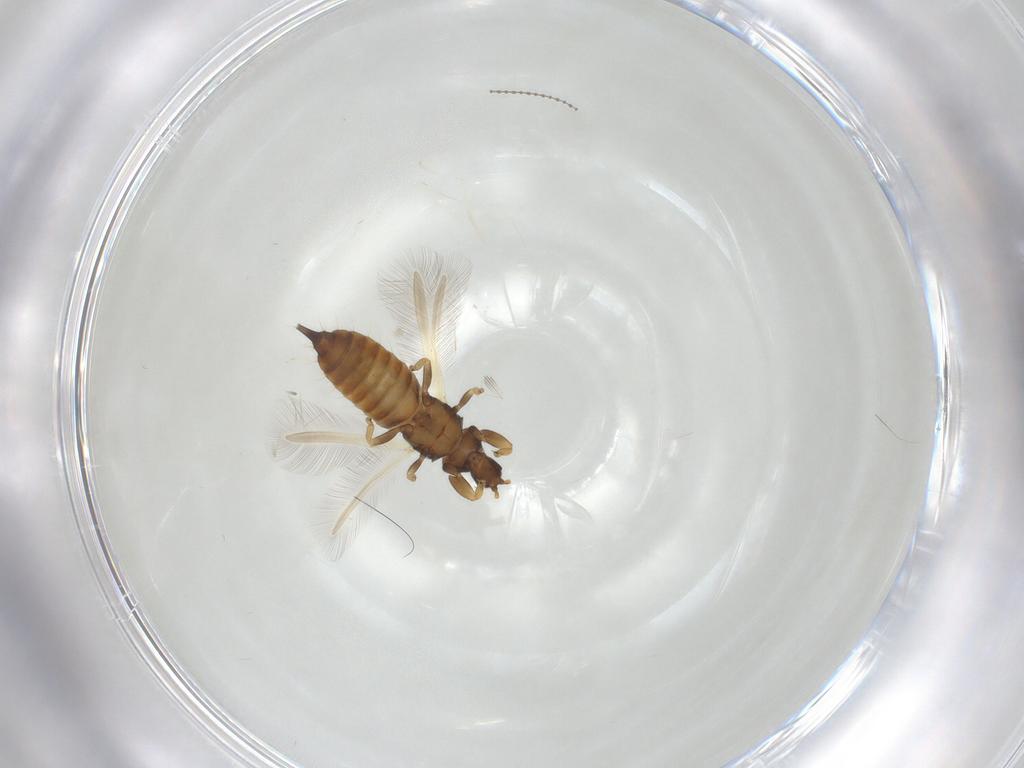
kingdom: Animalia
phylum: Arthropoda
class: Insecta
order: Thysanoptera
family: Phlaeothripidae
